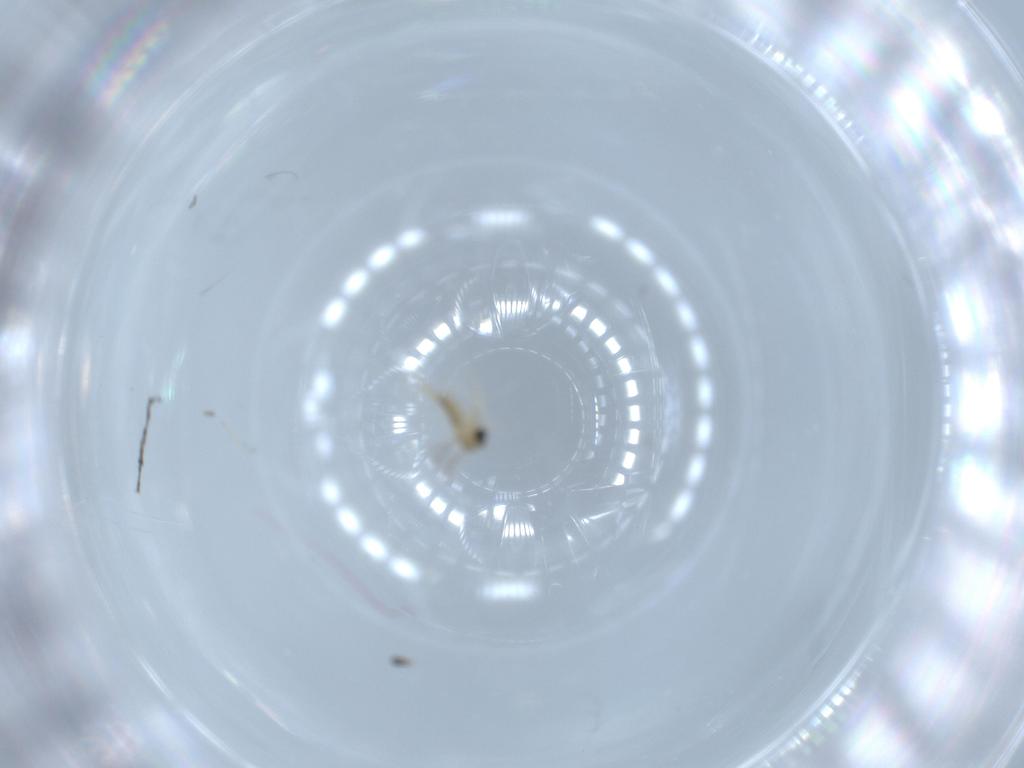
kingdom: Animalia
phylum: Arthropoda
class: Insecta
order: Diptera
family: Cecidomyiidae
